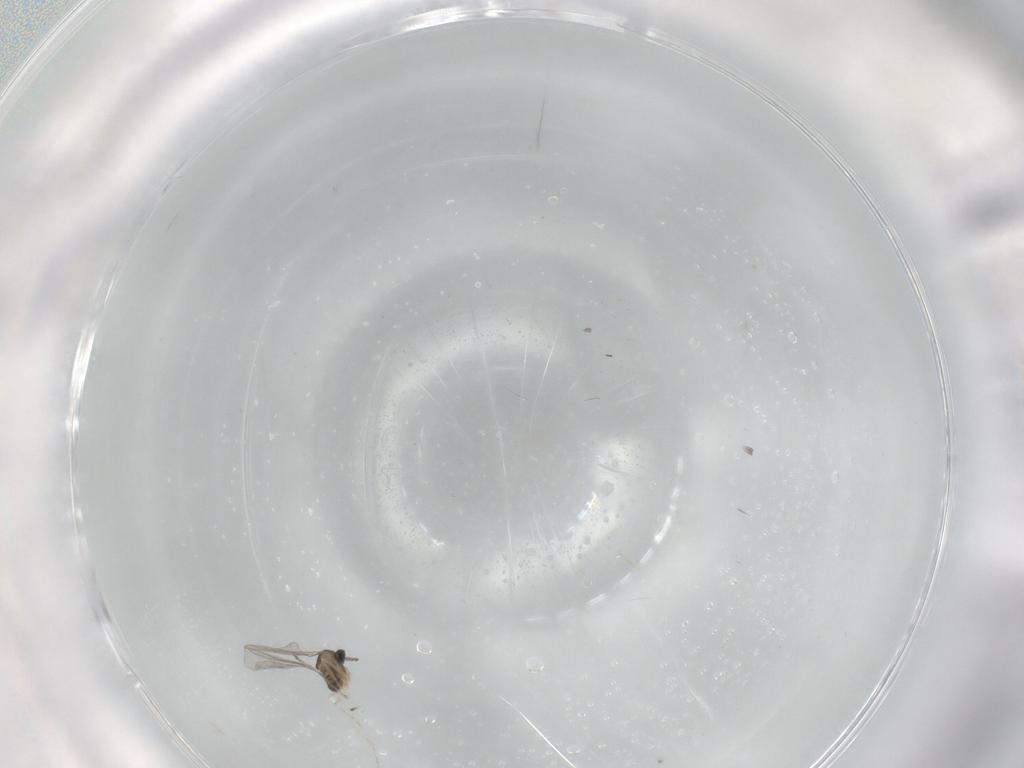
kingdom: Animalia
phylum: Arthropoda
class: Insecta
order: Diptera
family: Cecidomyiidae
